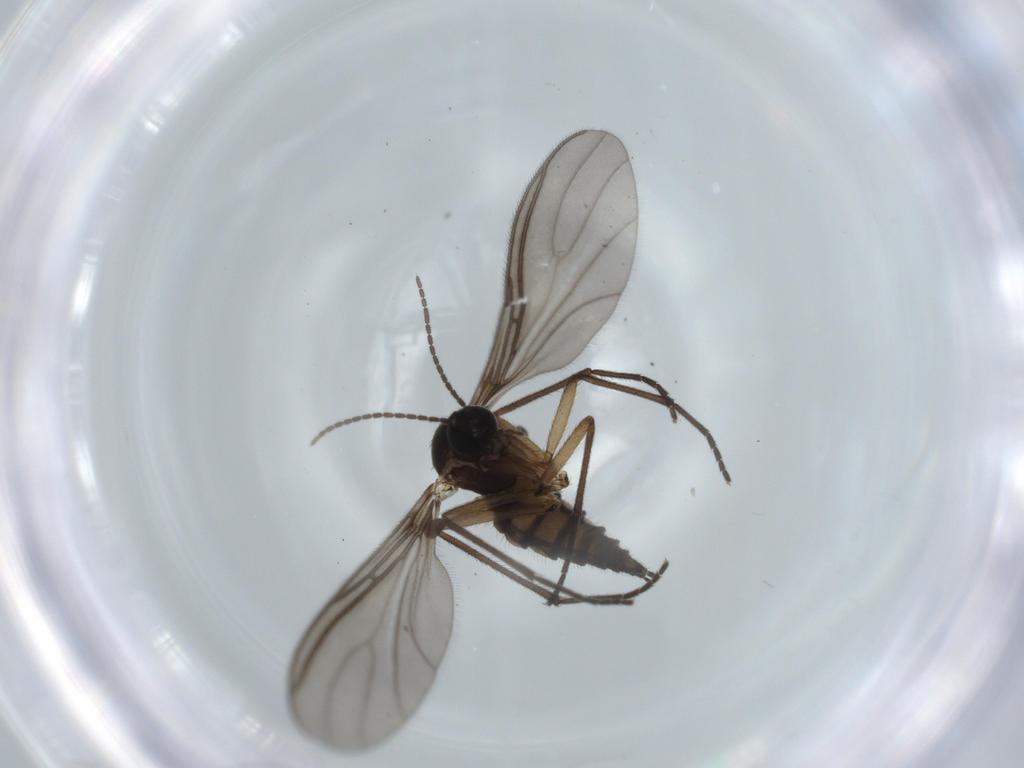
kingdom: Animalia
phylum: Arthropoda
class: Insecta
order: Diptera
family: Sciaridae
